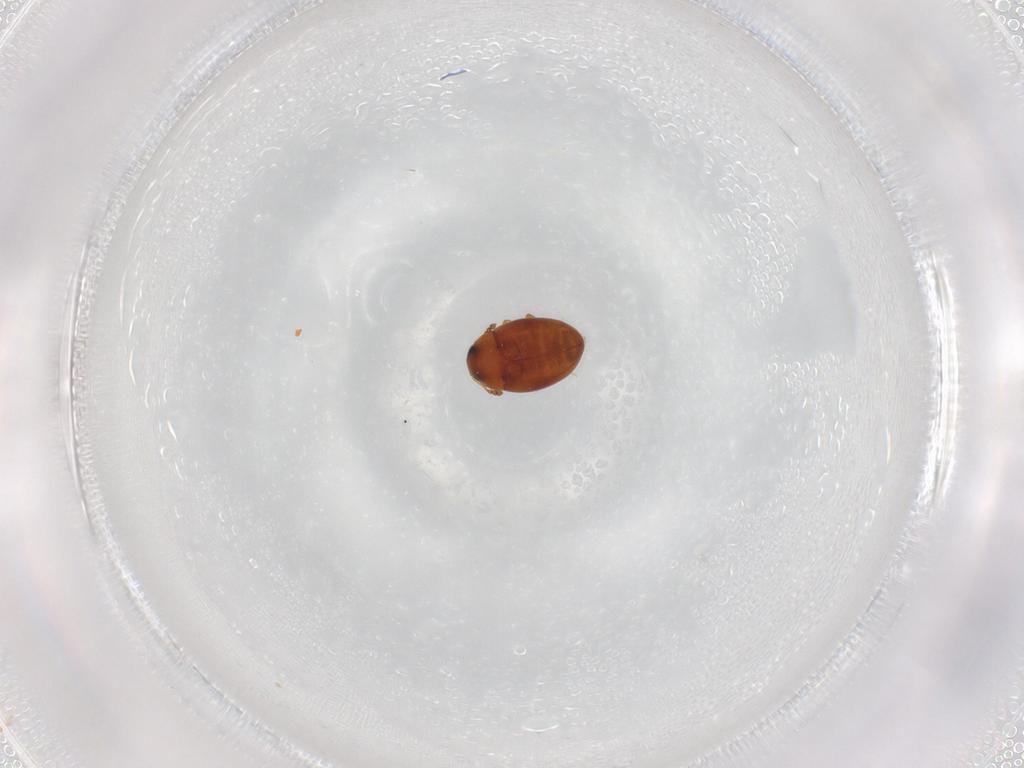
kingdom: Animalia
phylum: Arthropoda
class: Insecta
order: Coleoptera
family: Cryptophagidae
